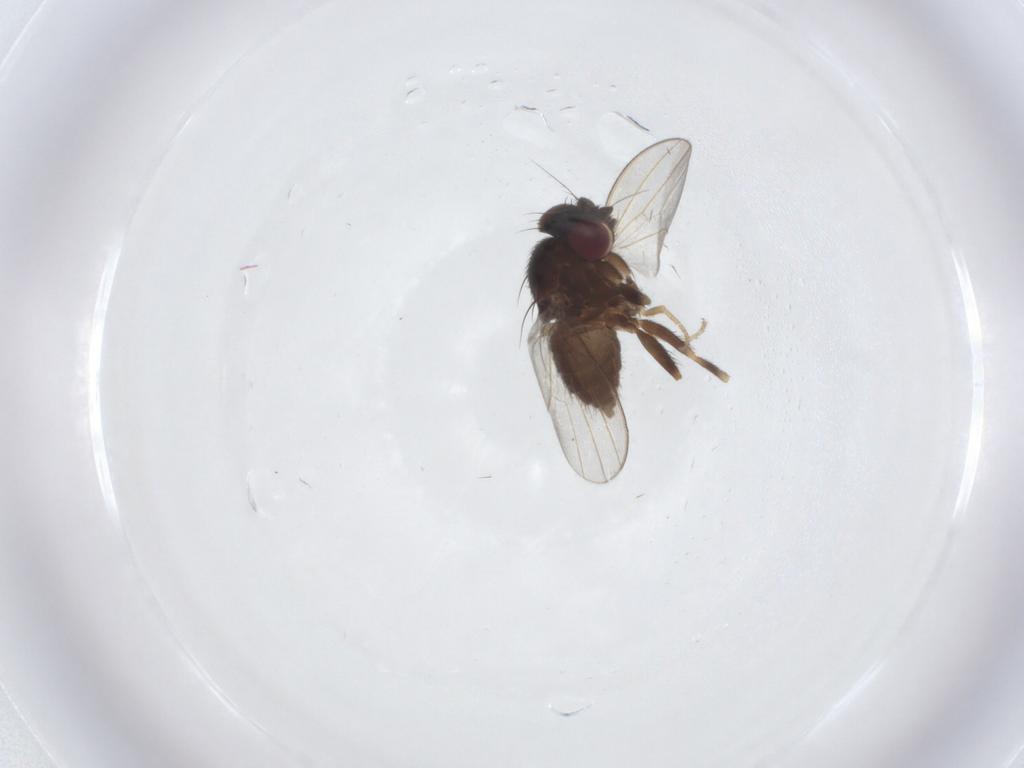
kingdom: Animalia
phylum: Arthropoda
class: Insecta
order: Diptera
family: Milichiidae
